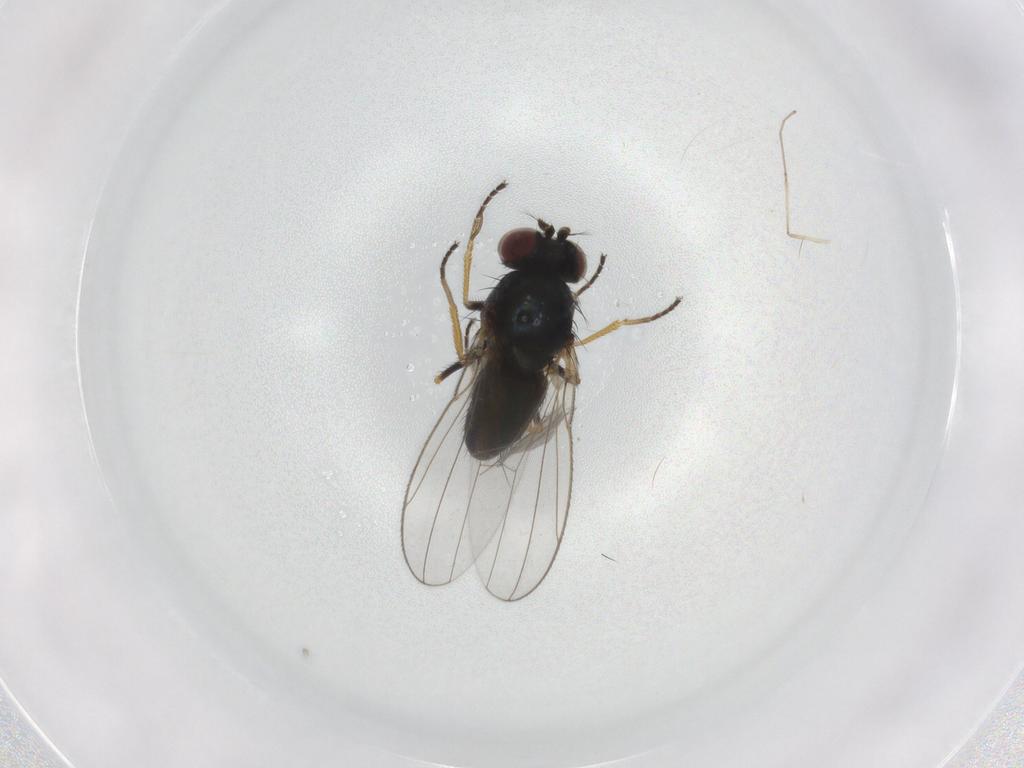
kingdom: Animalia
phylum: Arthropoda
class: Insecta
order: Diptera
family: Ephydridae
